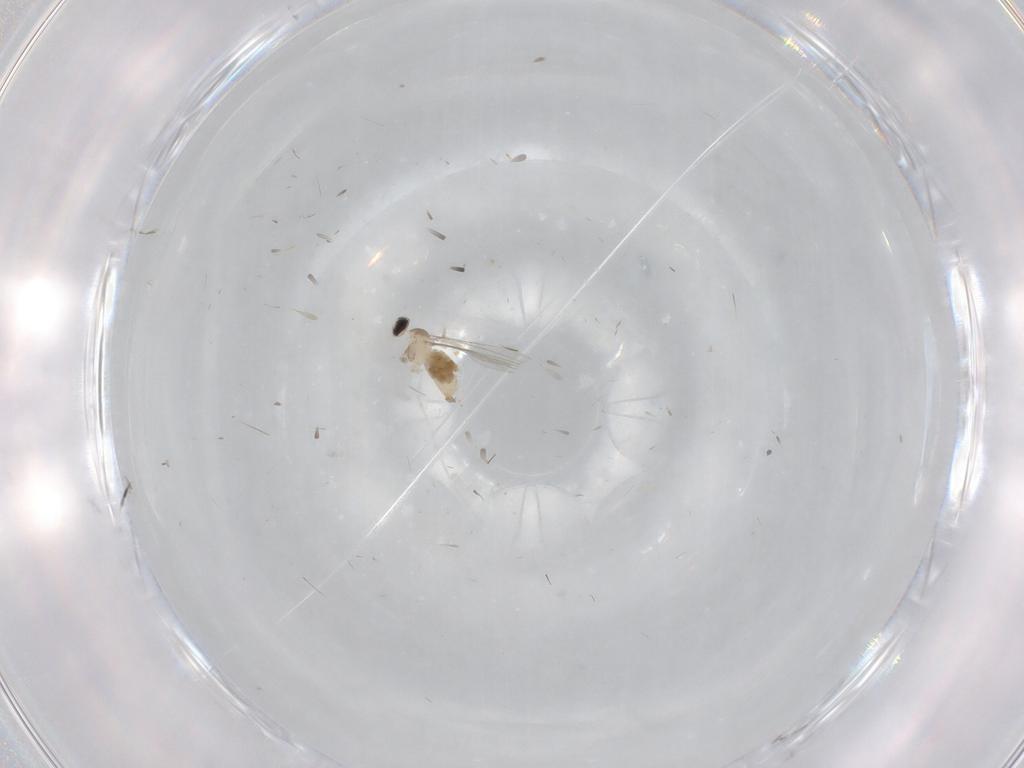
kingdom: Animalia
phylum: Arthropoda
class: Insecta
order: Diptera
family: Cecidomyiidae
